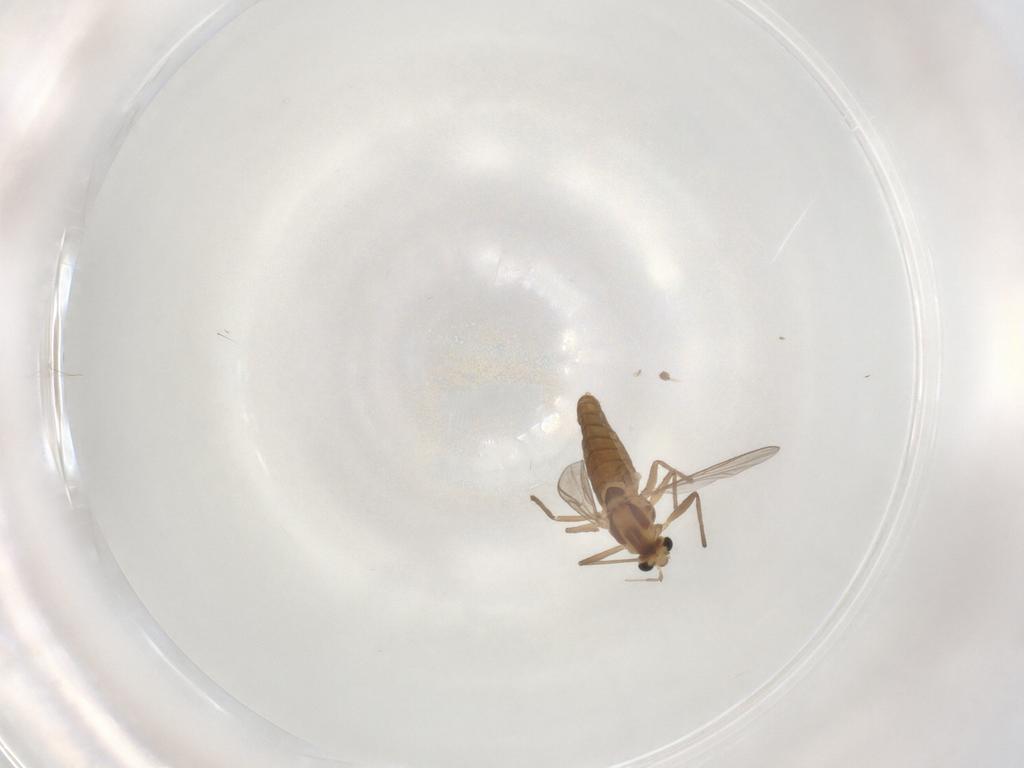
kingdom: Animalia
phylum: Arthropoda
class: Insecta
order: Diptera
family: Chironomidae
